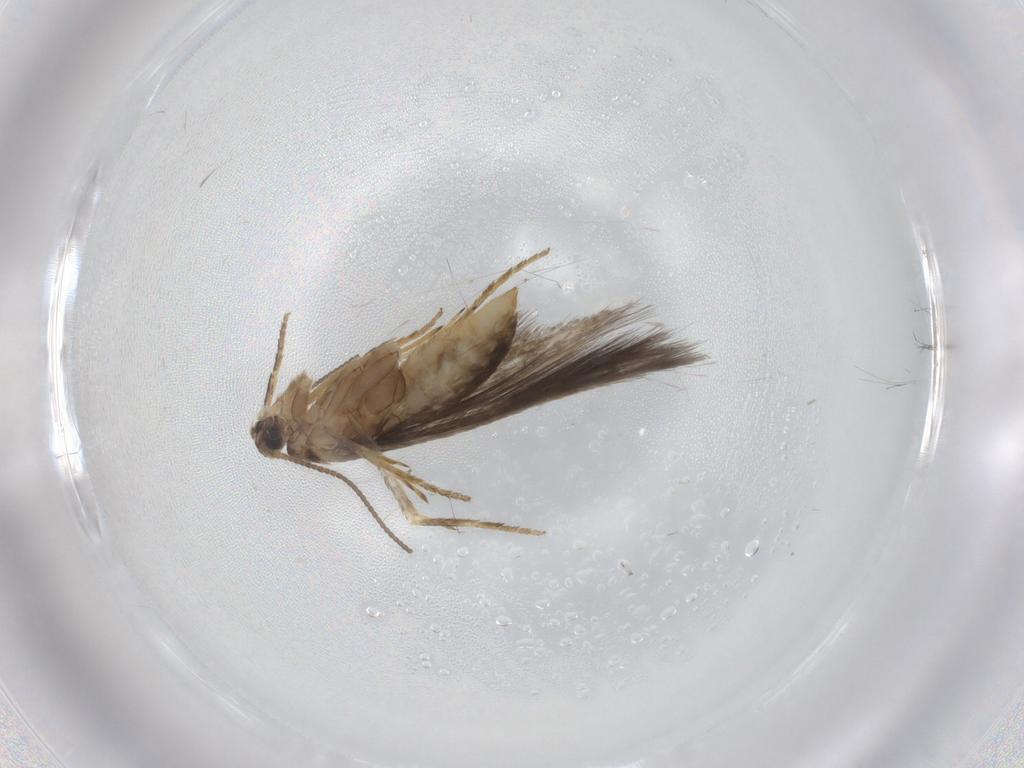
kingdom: Animalia
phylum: Arthropoda
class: Insecta
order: Lepidoptera
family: Nepticulidae
